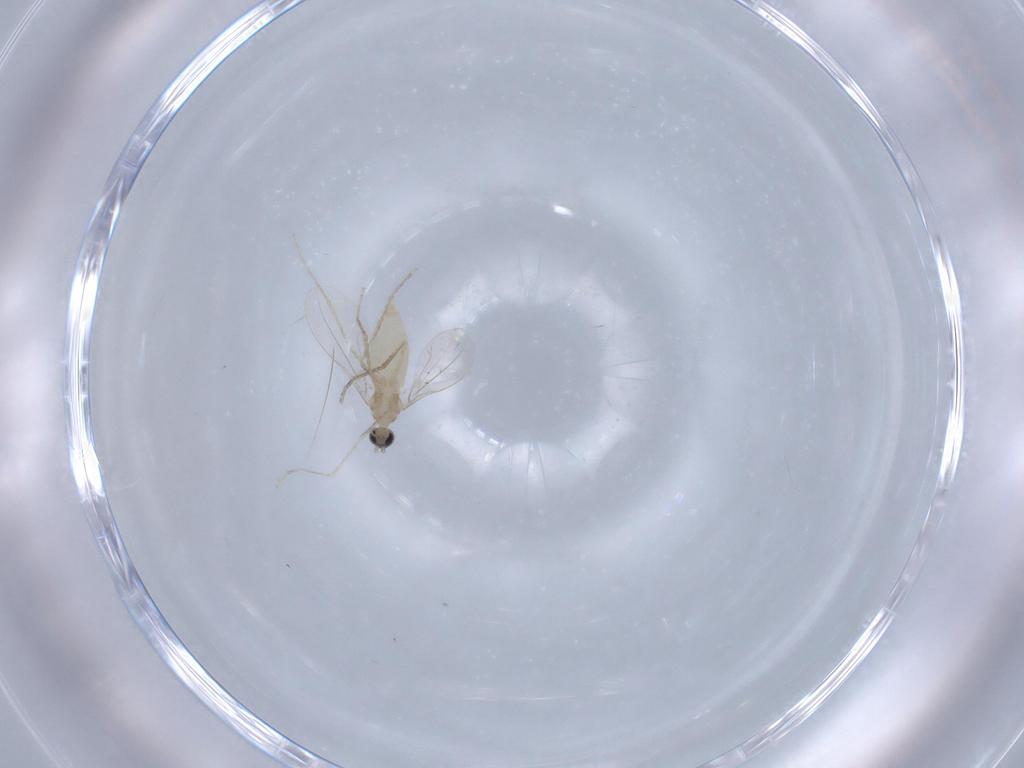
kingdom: Animalia
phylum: Arthropoda
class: Insecta
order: Diptera
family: Cecidomyiidae
